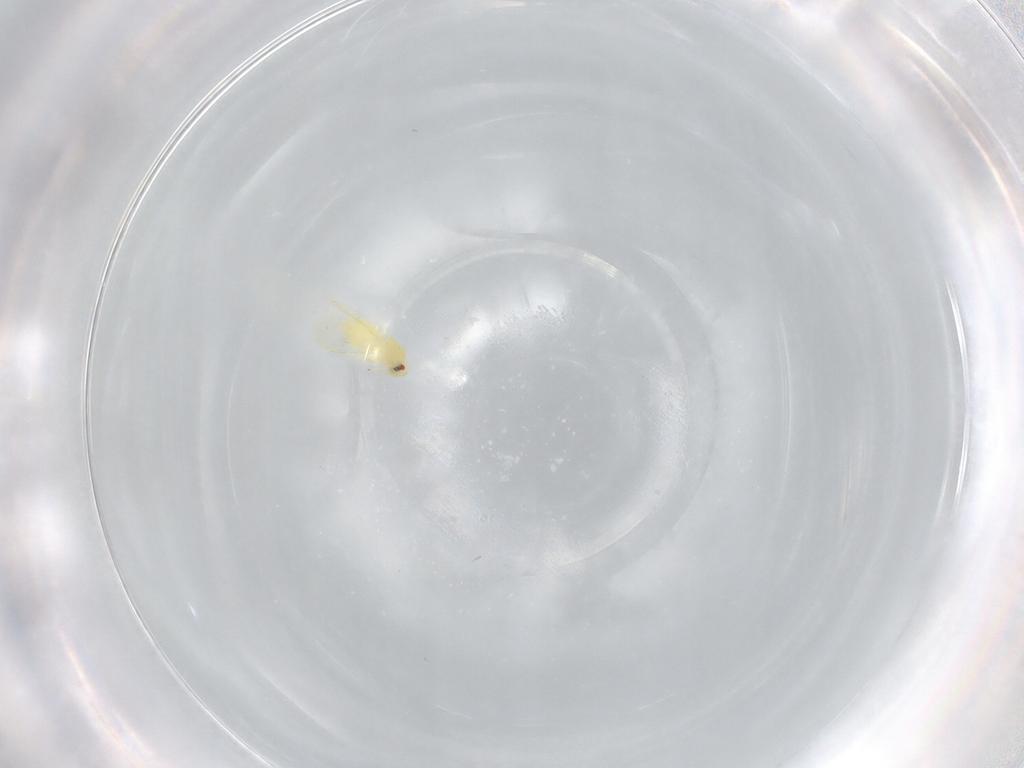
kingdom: Animalia
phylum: Arthropoda
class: Insecta
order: Hemiptera
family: Aleyrodidae
